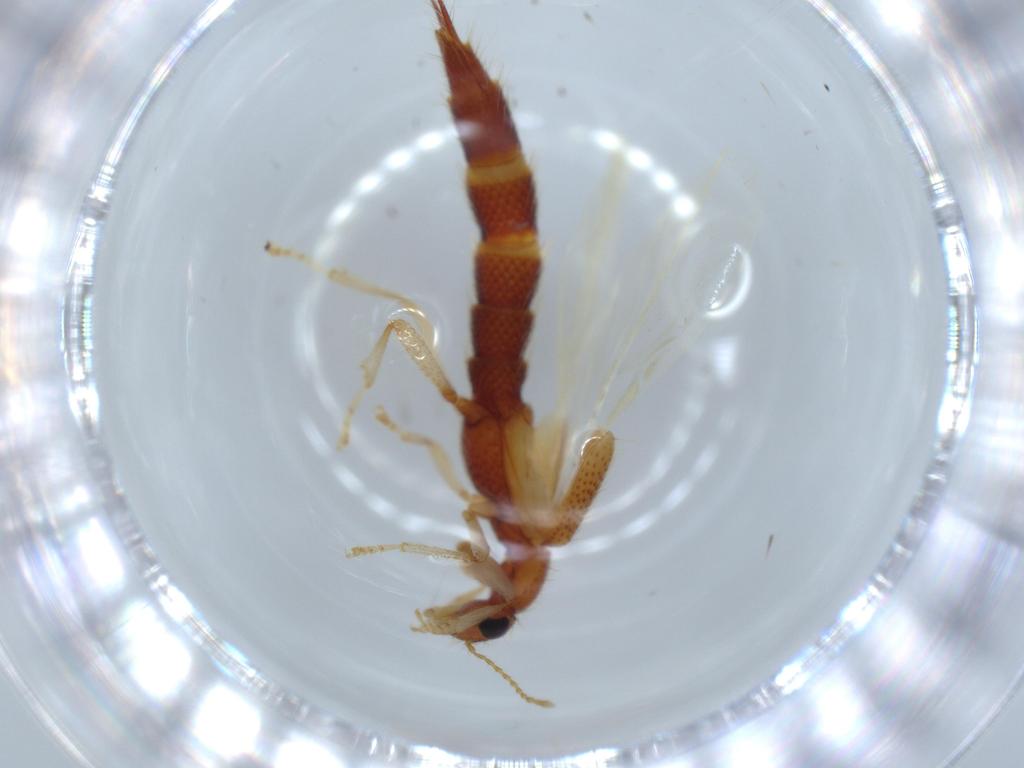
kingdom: Animalia
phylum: Arthropoda
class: Insecta
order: Coleoptera
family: Staphylinidae
